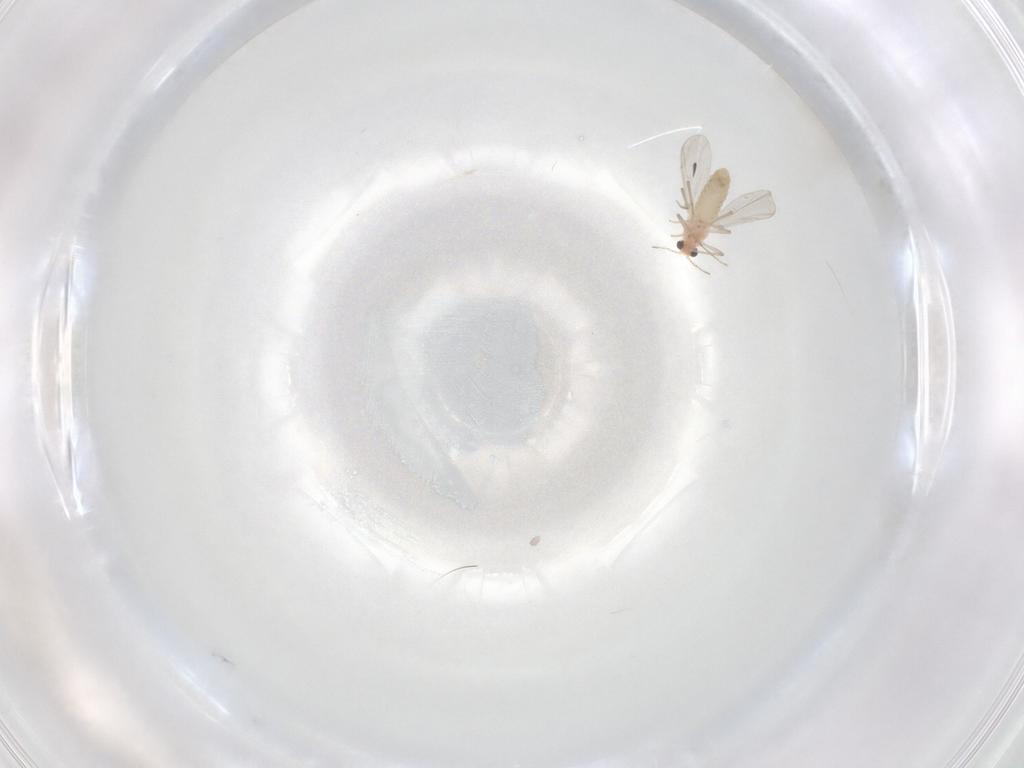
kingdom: Animalia
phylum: Arthropoda
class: Insecta
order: Diptera
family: Chironomidae
